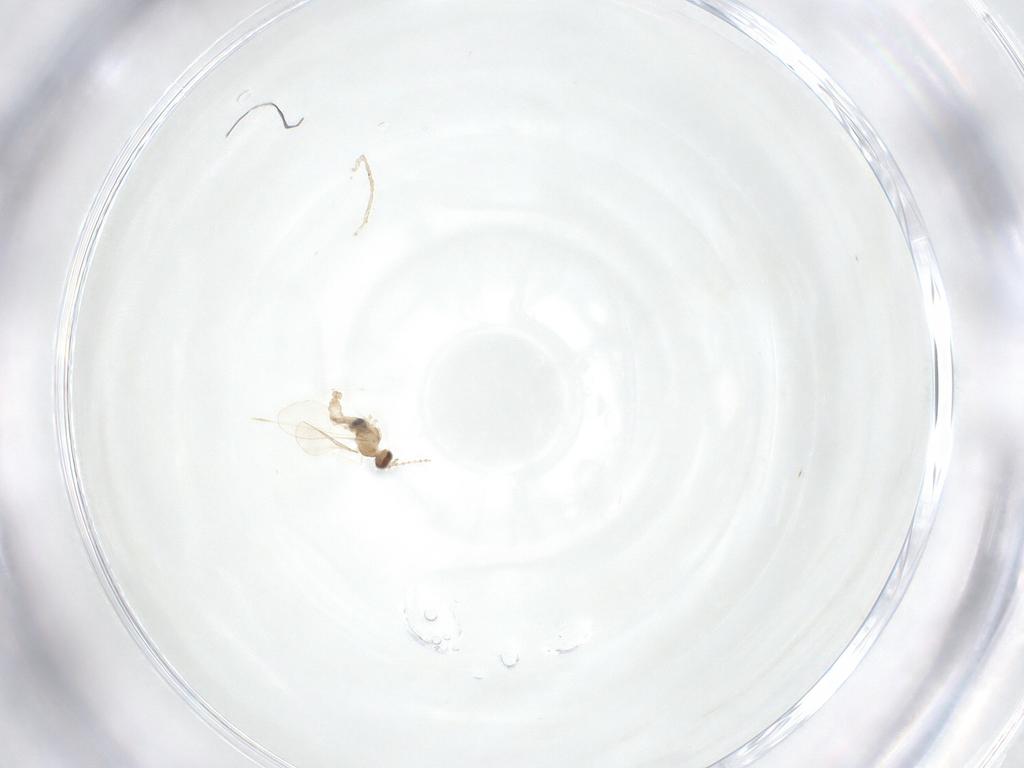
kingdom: Animalia
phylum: Arthropoda
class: Insecta
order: Diptera
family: Cecidomyiidae
